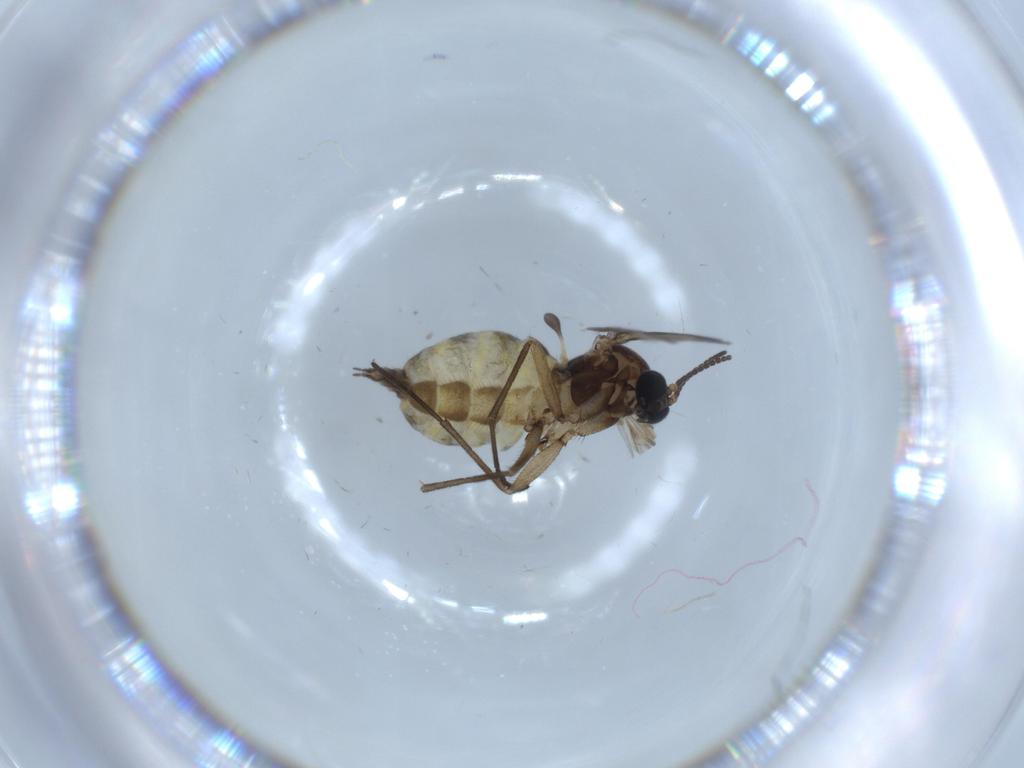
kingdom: Animalia
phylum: Arthropoda
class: Insecta
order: Diptera
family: Sciaridae
